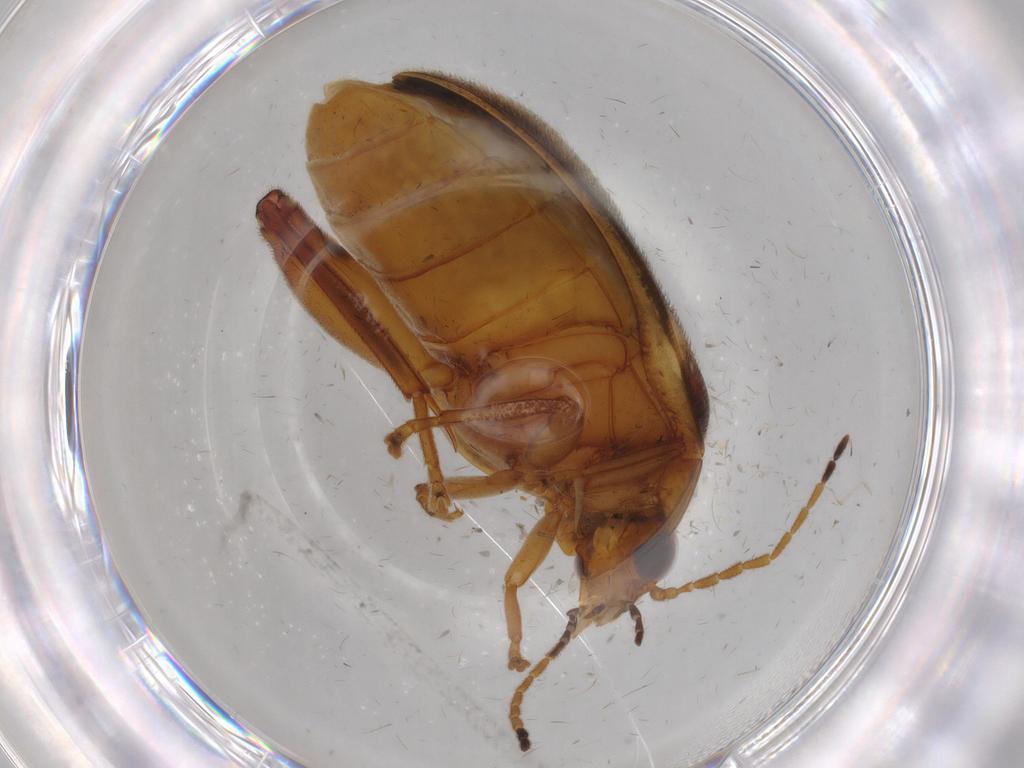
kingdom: Animalia
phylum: Arthropoda
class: Insecta
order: Coleoptera
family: Scirtidae
